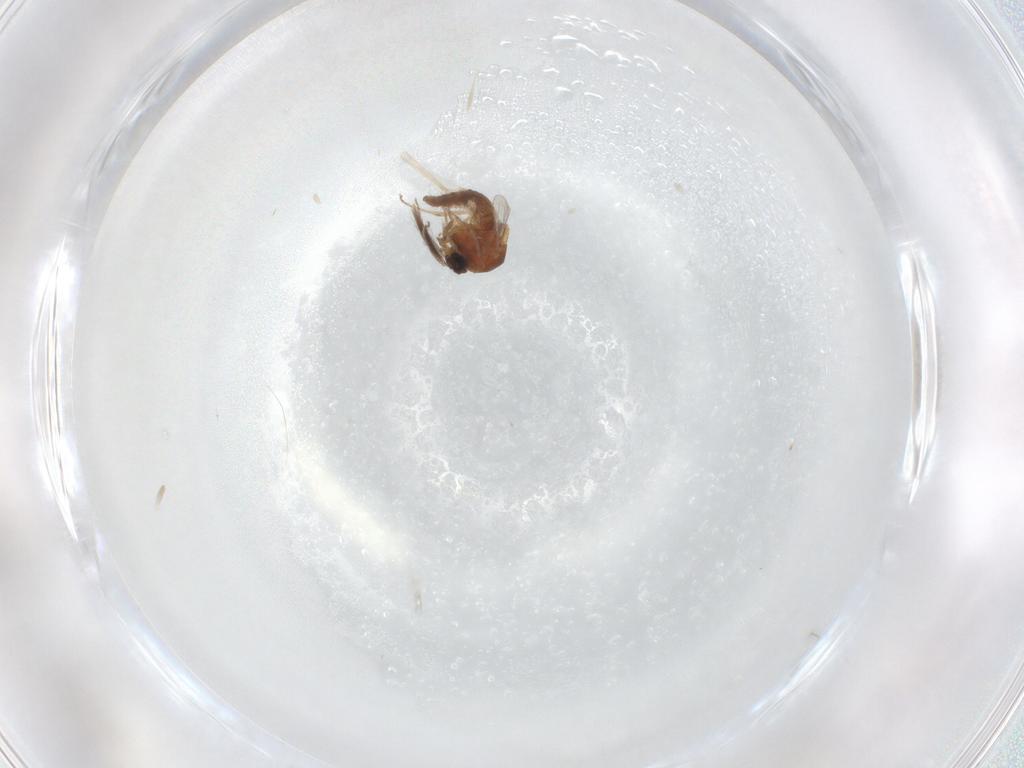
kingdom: Animalia
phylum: Arthropoda
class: Insecta
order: Diptera
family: Ceratopogonidae
